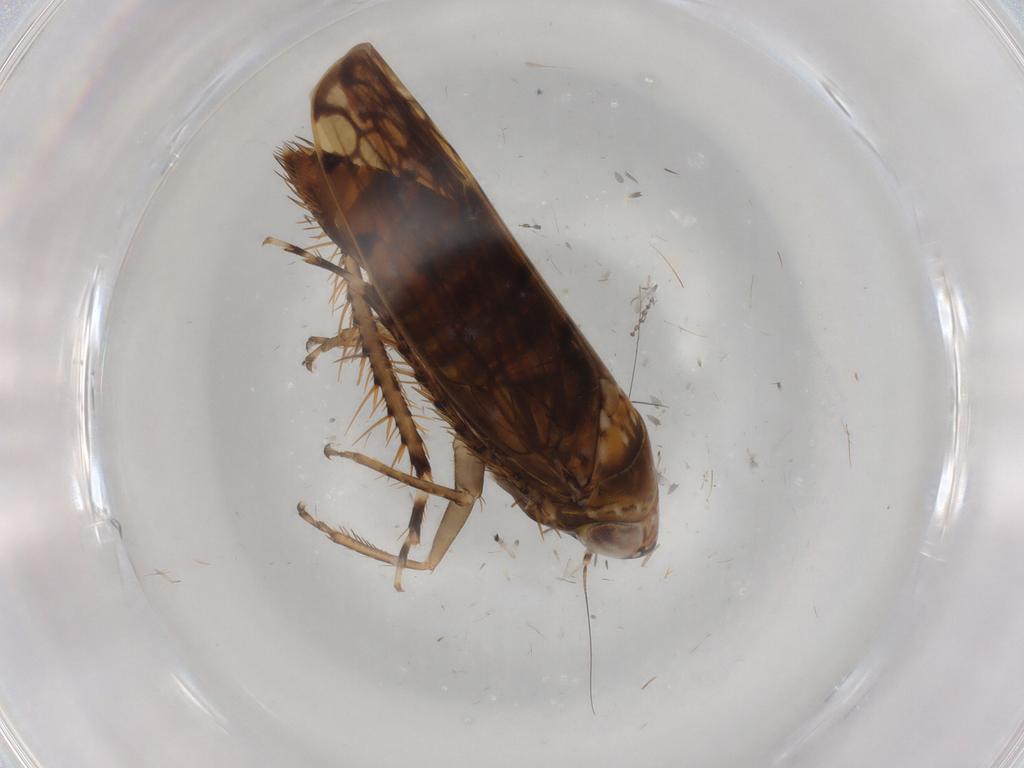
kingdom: Animalia
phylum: Arthropoda
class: Insecta
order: Hemiptera
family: Cicadellidae
